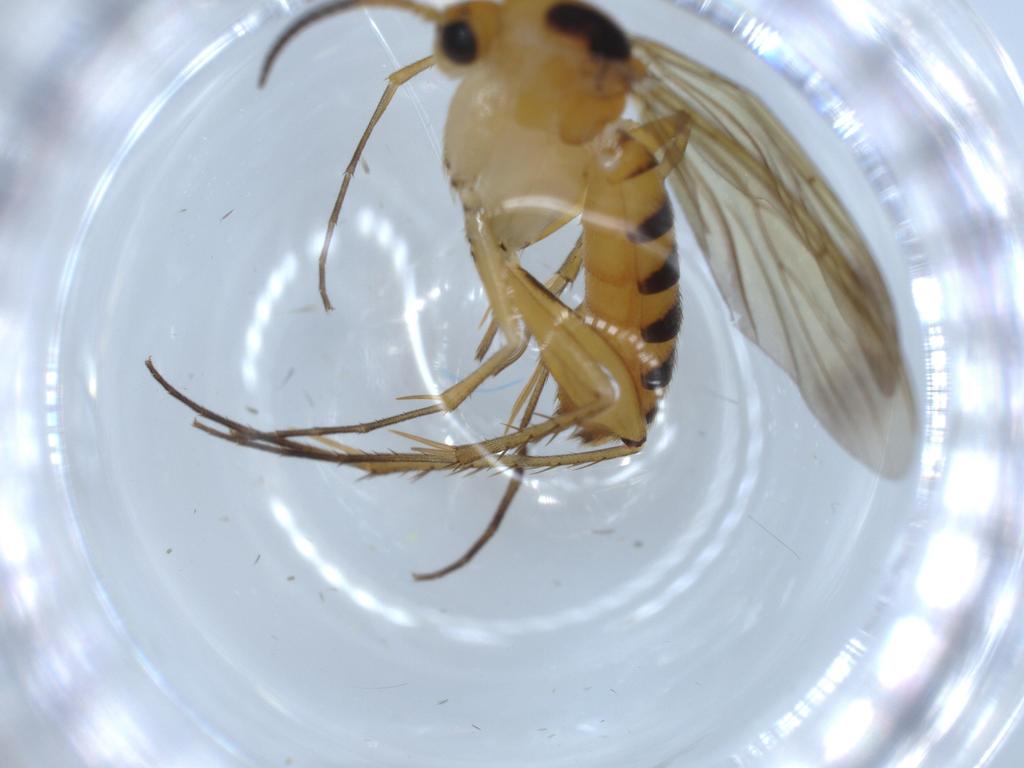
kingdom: Animalia
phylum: Arthropoda
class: Insecta
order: Diptera
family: Mycetophilidae
